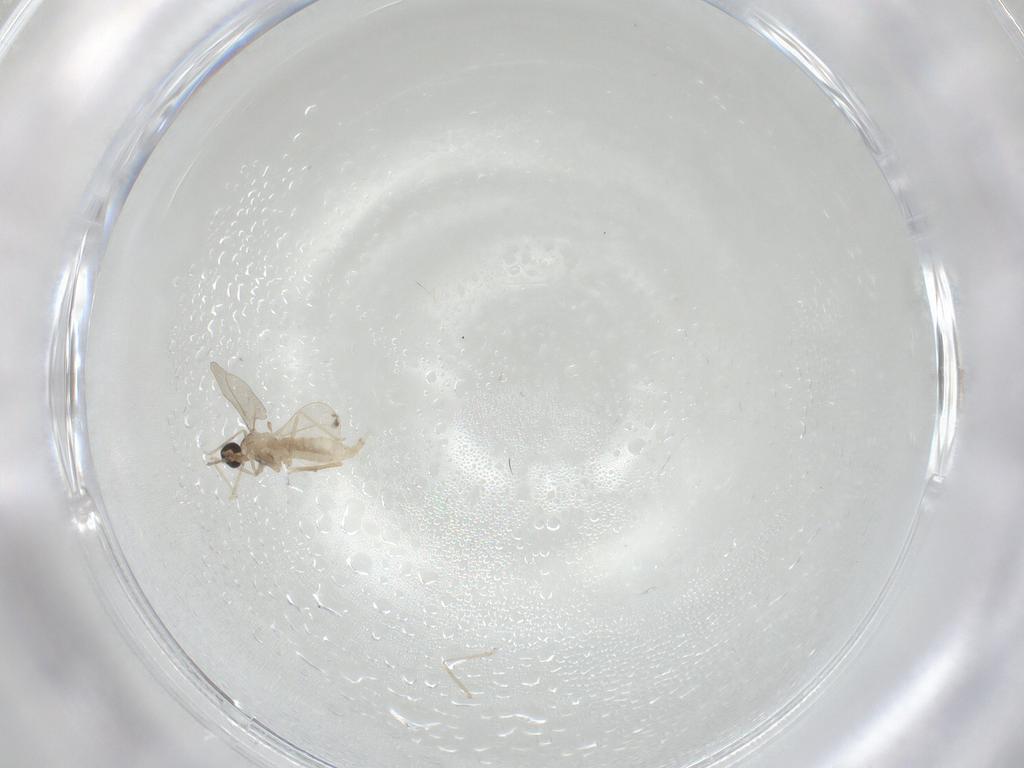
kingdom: Animalia
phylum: Arthropoda
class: Insecta
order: Diptera
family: Cecidomyiidae
